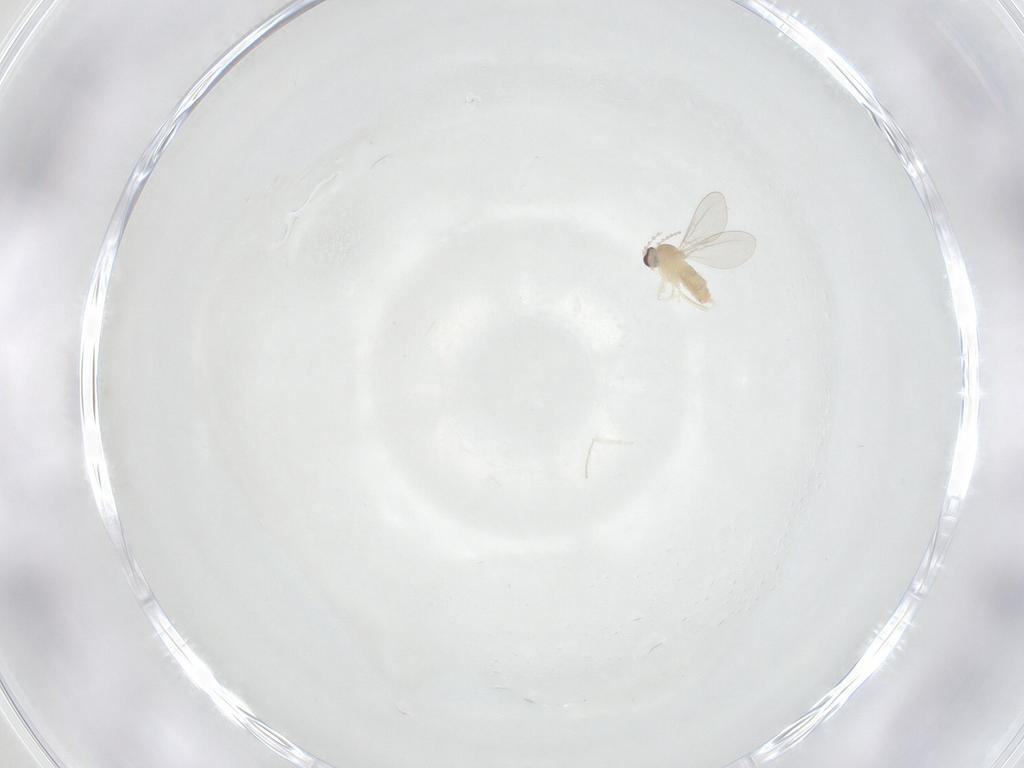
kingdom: Animalia
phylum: Arthropoda
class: Insecta
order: Diptera
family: Cecidomyiidae
